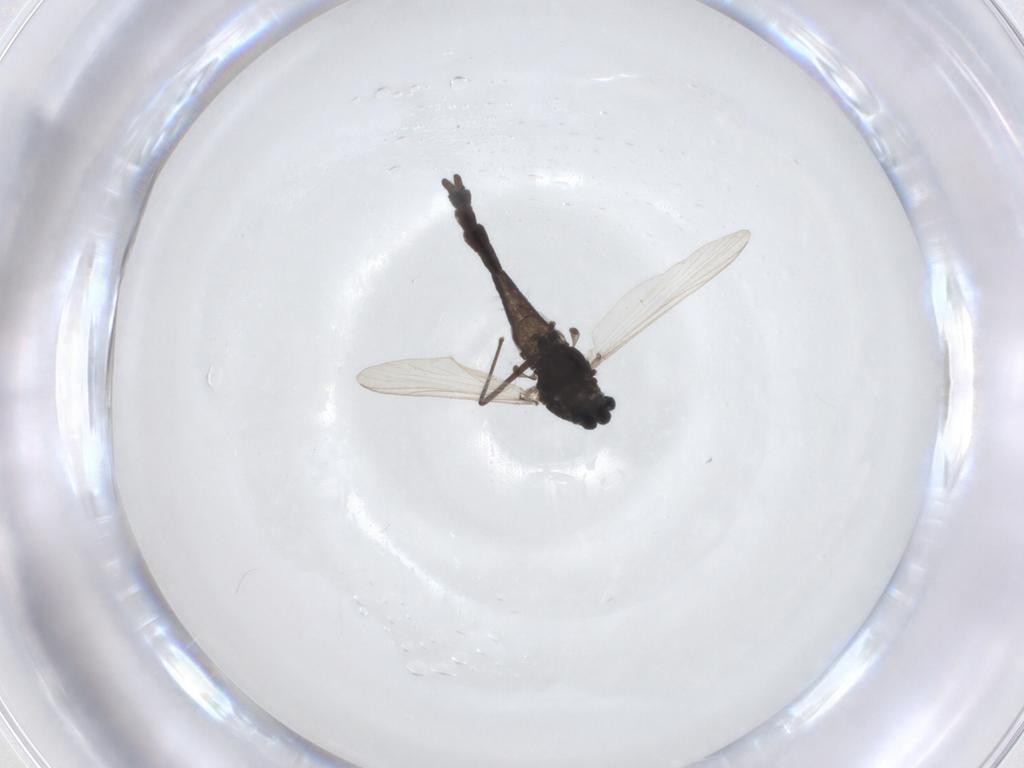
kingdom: Animalia
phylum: Arthropoda
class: Insecta
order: Diptera
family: Chironomidae
